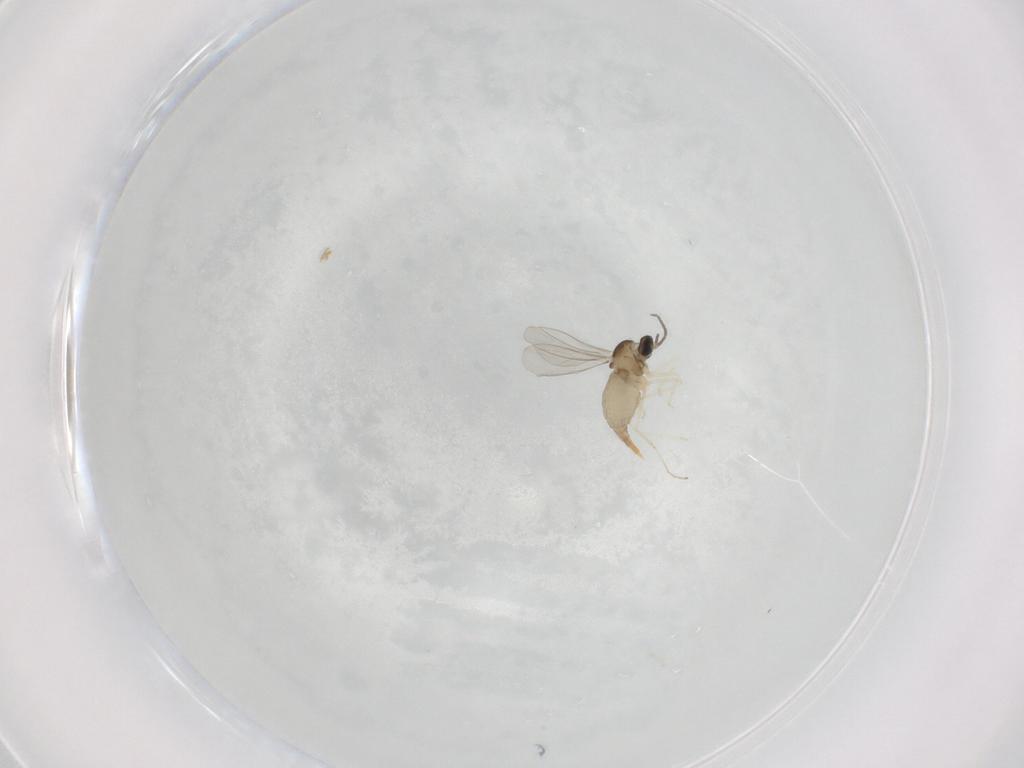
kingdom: Animalia
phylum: Arthropoda
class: Insecta
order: Diptera
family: Cecidomyiidae
